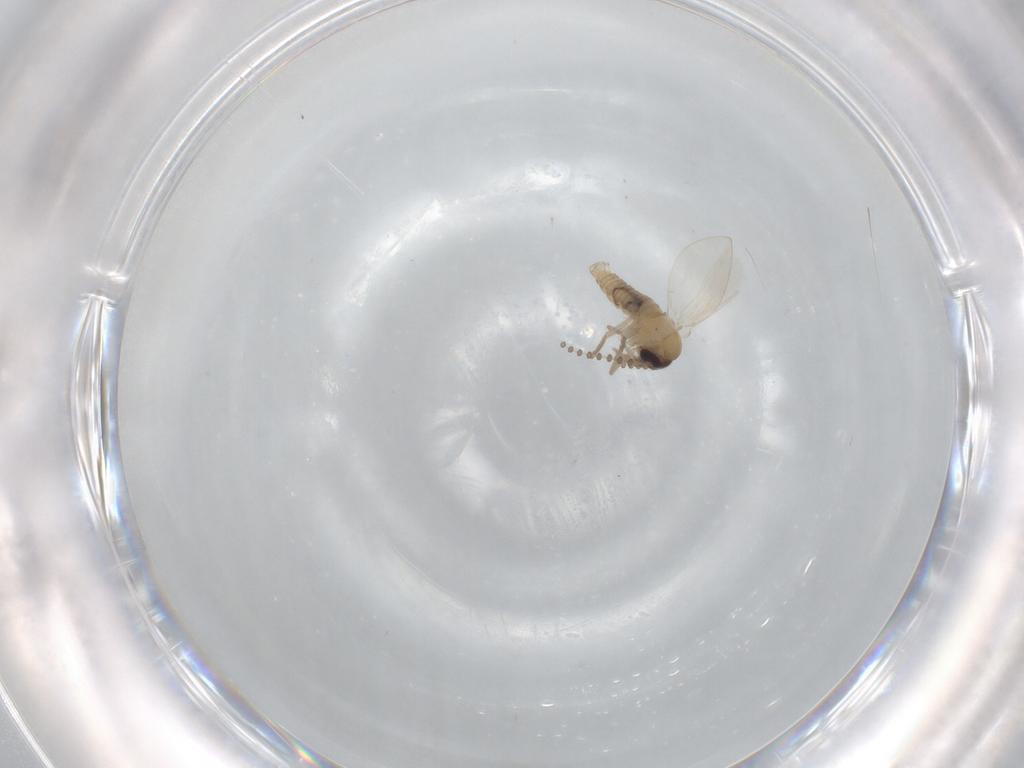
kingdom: Animalia
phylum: Arthropoda
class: Insecta
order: Diptera
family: Psychodidae
